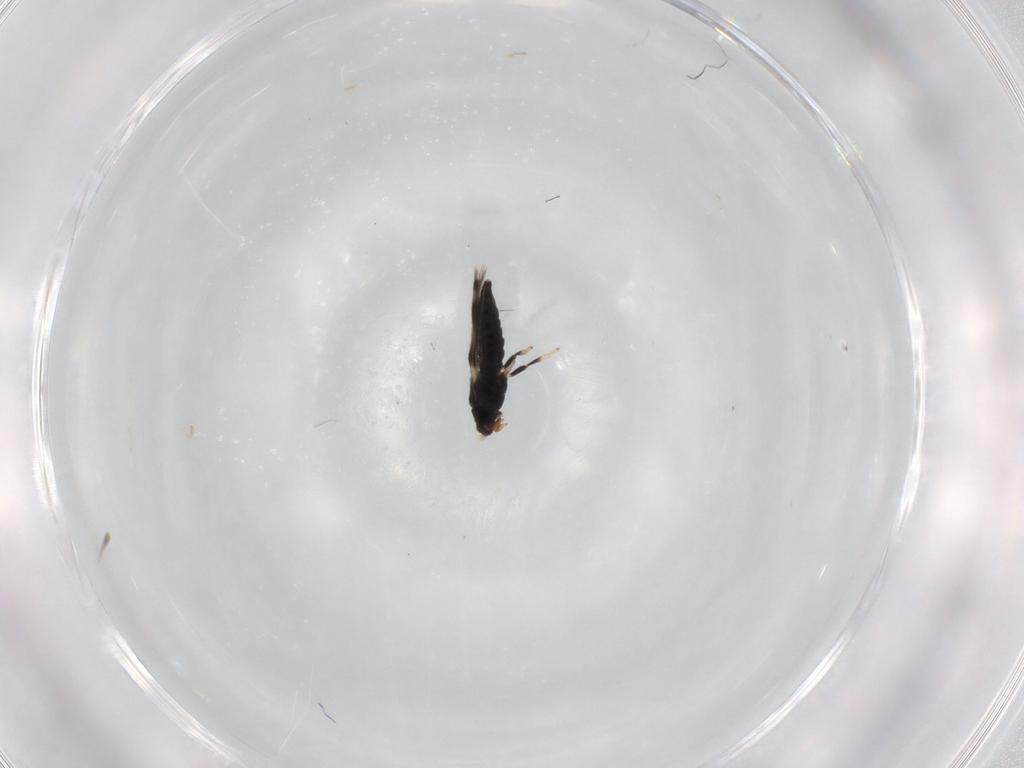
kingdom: Animalia
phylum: Arthropoda
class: Insecta
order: Thysanoptera
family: Thripidae
